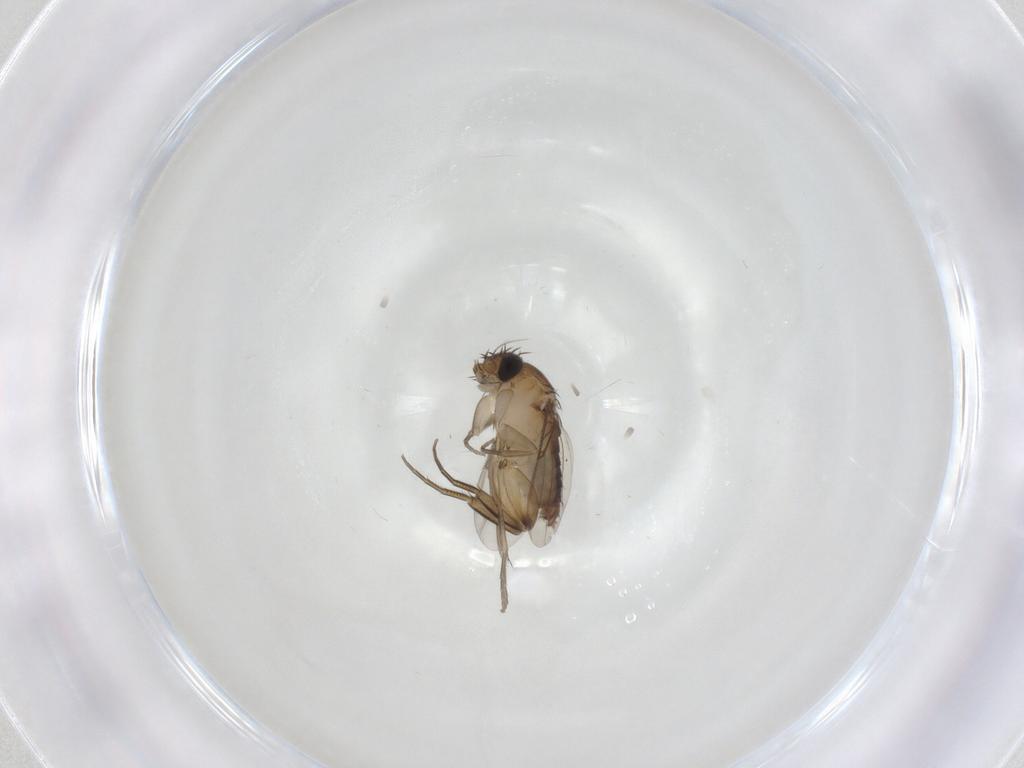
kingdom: Animalia
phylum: Arthropoda
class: Insecta
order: Diptera
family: Phoridae
